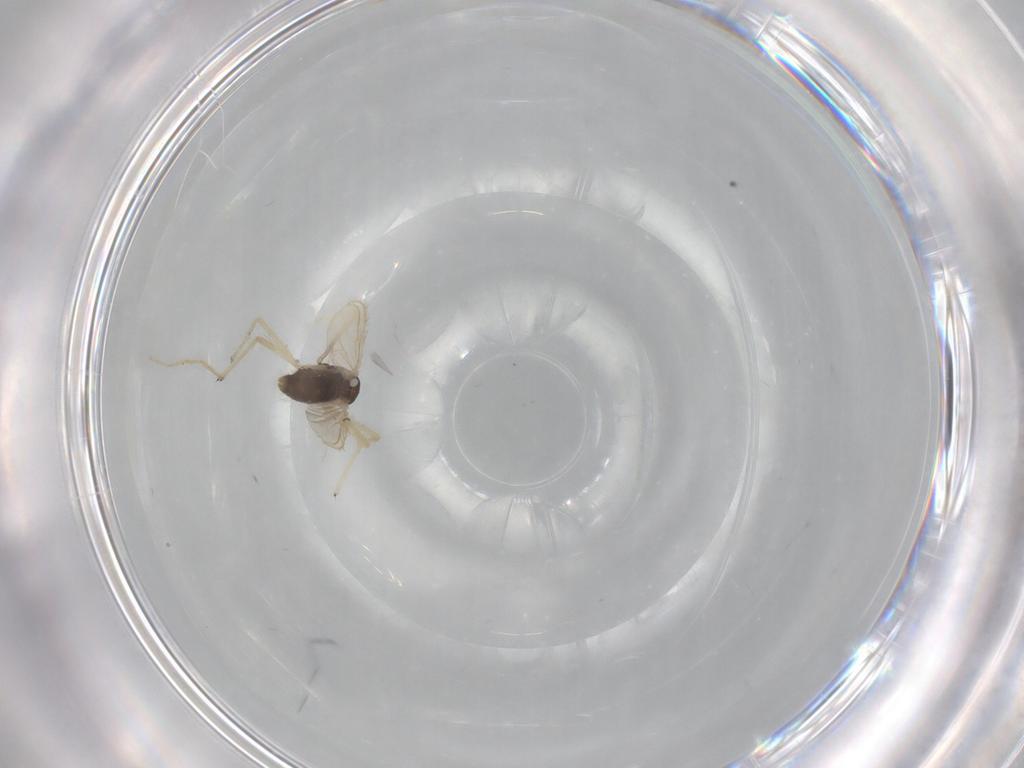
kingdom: Animalia
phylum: Arthropoda
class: Insecta
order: Diptera
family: Chironomidae
